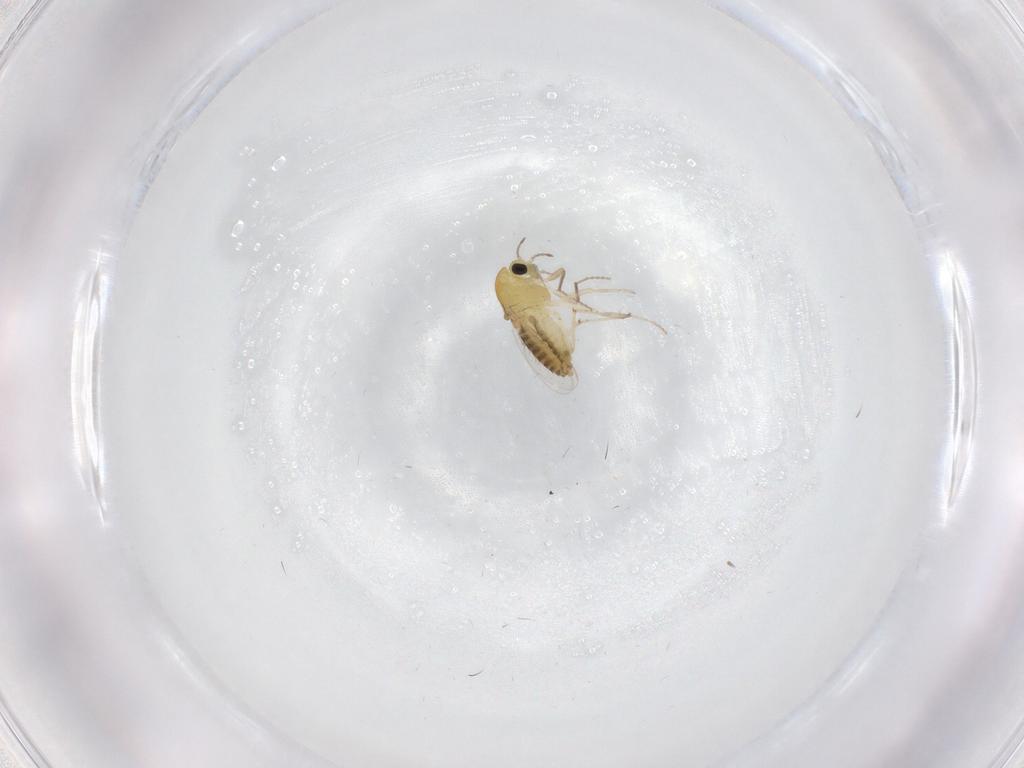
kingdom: Animalia
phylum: Arthropoda
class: Insecta
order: Diptera
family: Chironomidae
